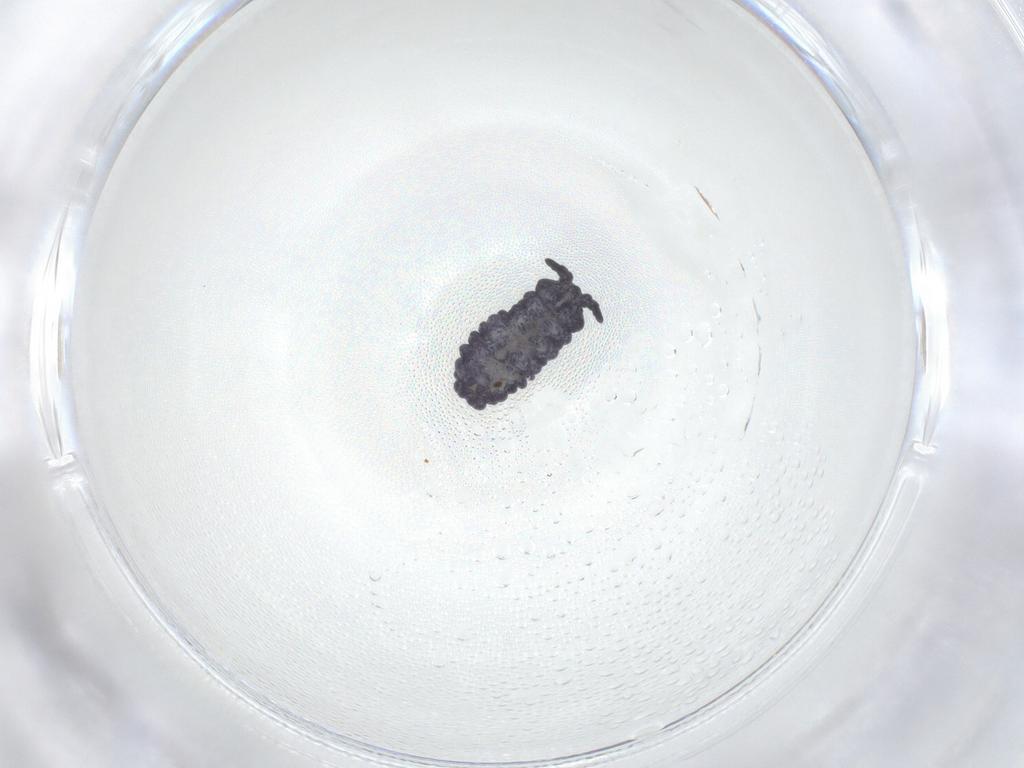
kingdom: Animalia
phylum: Arthropoda
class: Collembola
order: Poduromorpha
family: Neanuridae
